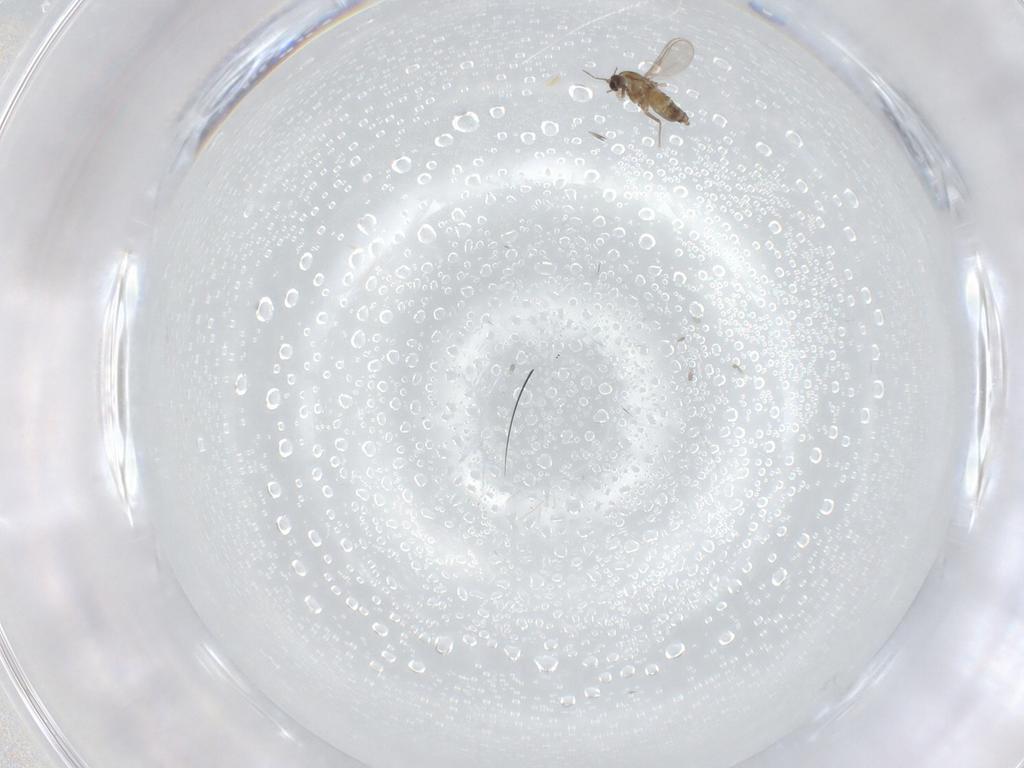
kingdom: Animalia
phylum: Arthropoda
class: Insecta
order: Diptera
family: Chironomidae
